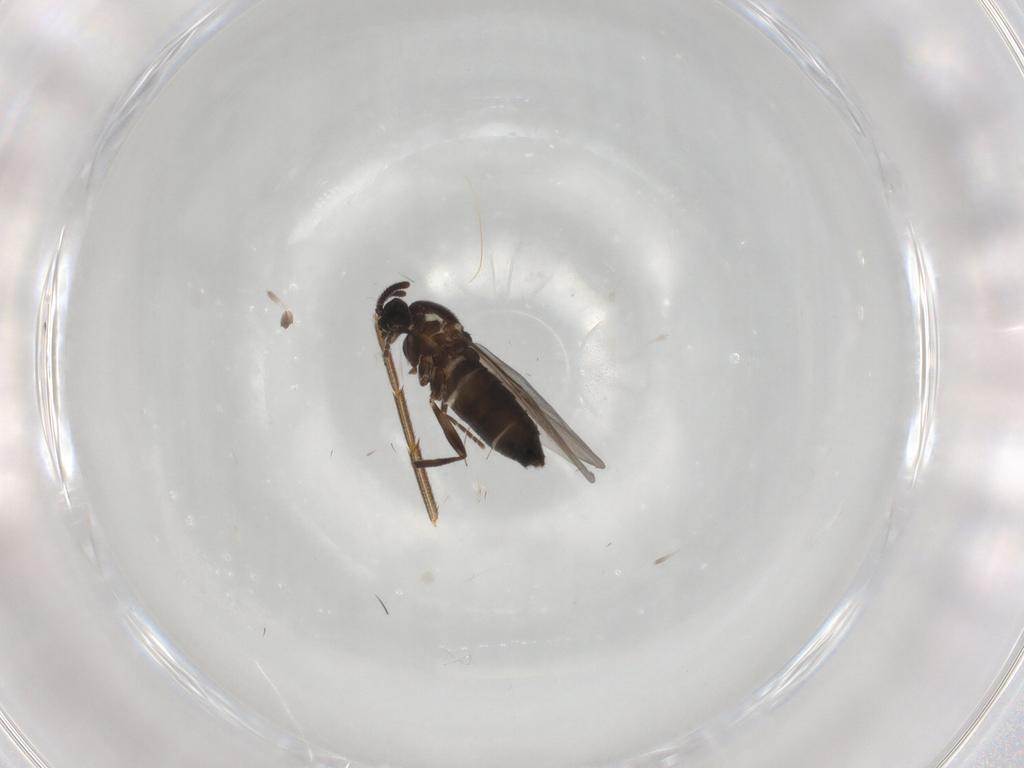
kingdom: Animalia
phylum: Arthropoda
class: Insecta
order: Diptera
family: Scatopsidae
